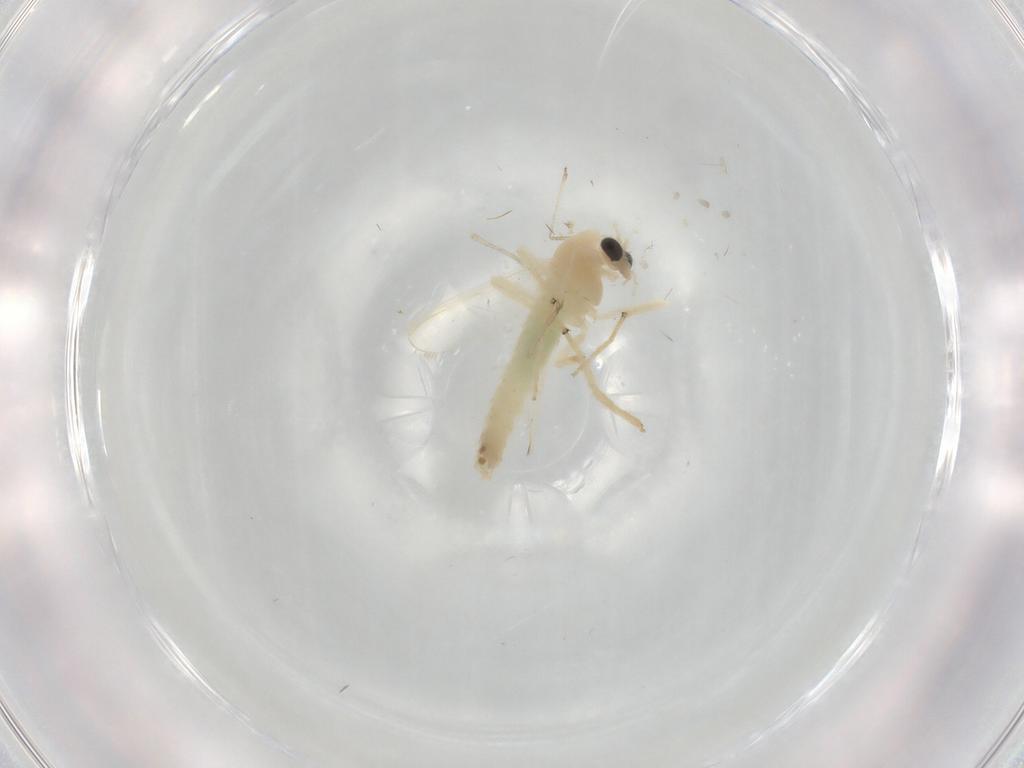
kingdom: Animalia
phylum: Arthropoda
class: Insecta
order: Diptera
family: Chironomidae
